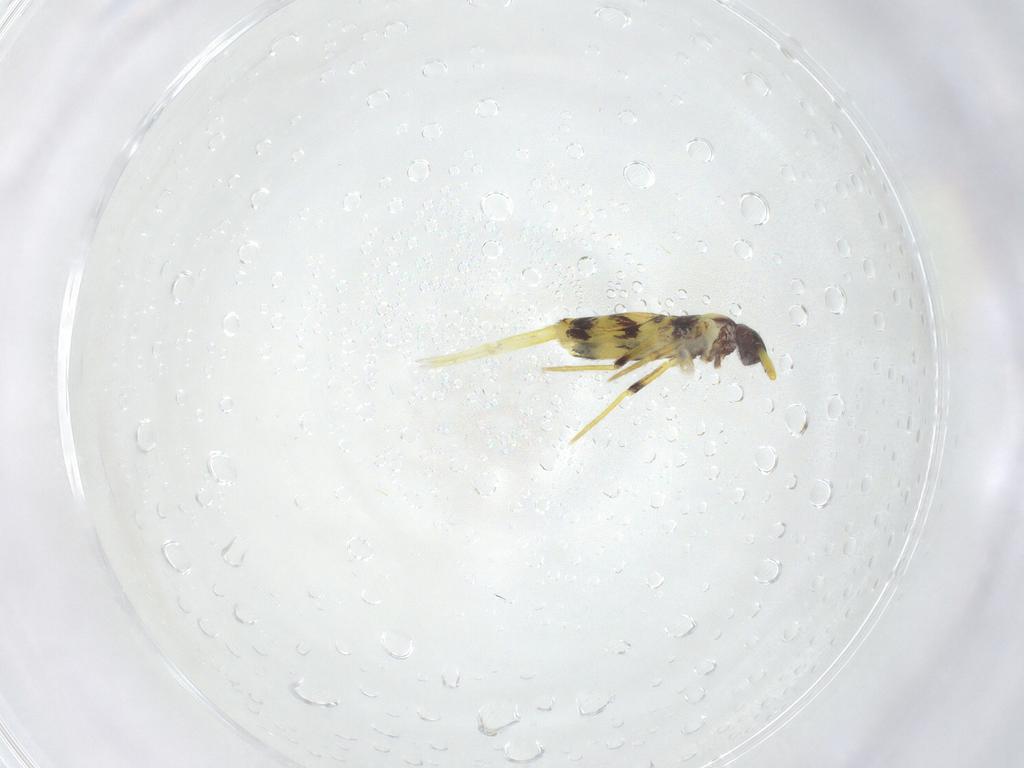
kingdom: Animalia
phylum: Arthropoda
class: Collembola
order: Entomobryomorpha
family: Entomobryidae
